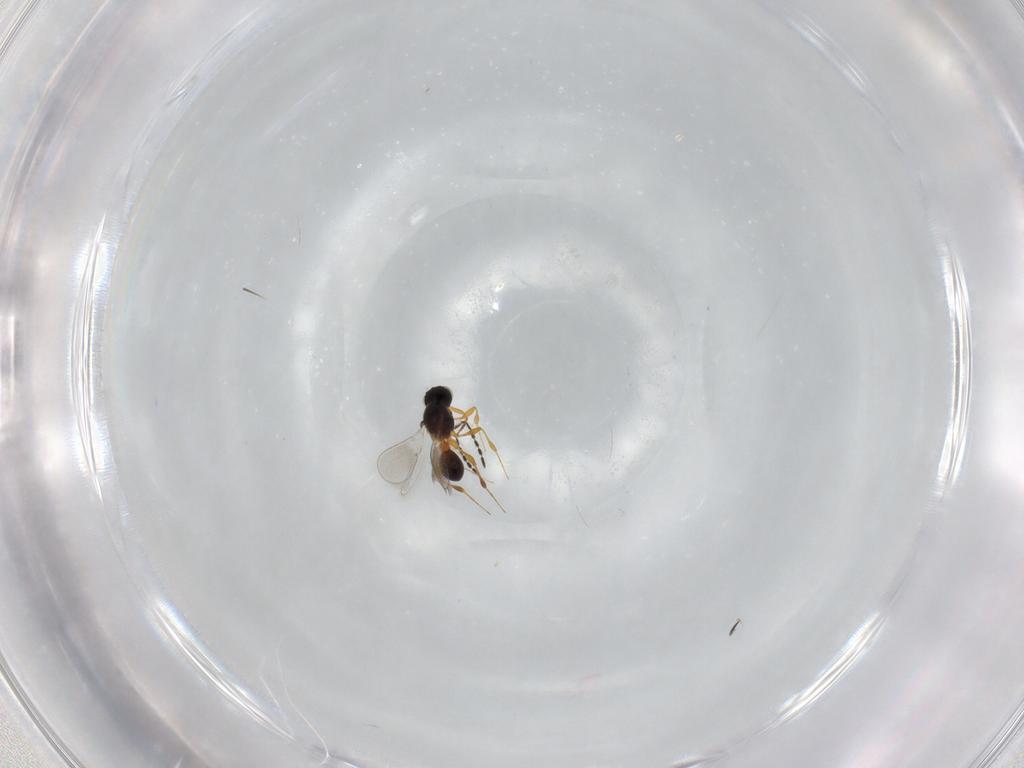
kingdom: Animalia
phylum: Arthropoda
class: Insecta
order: Hymenoptera
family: Platygastridae
